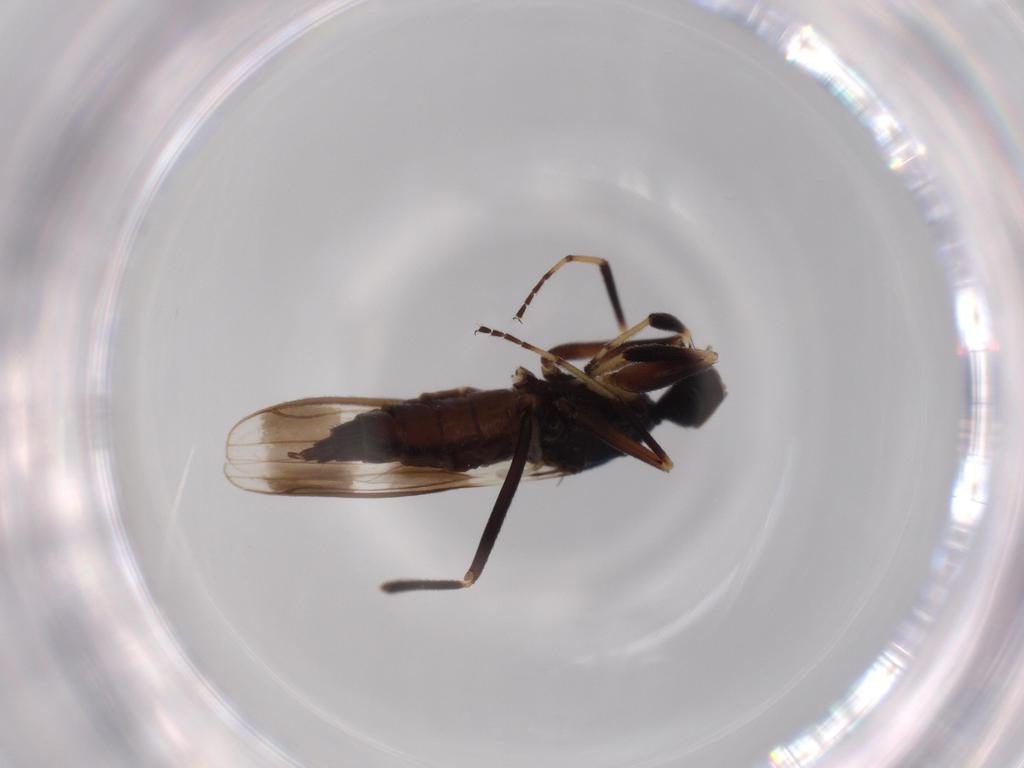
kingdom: Animalia
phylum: Arthropoda
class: Insecta
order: Diptera
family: Hybotidae
